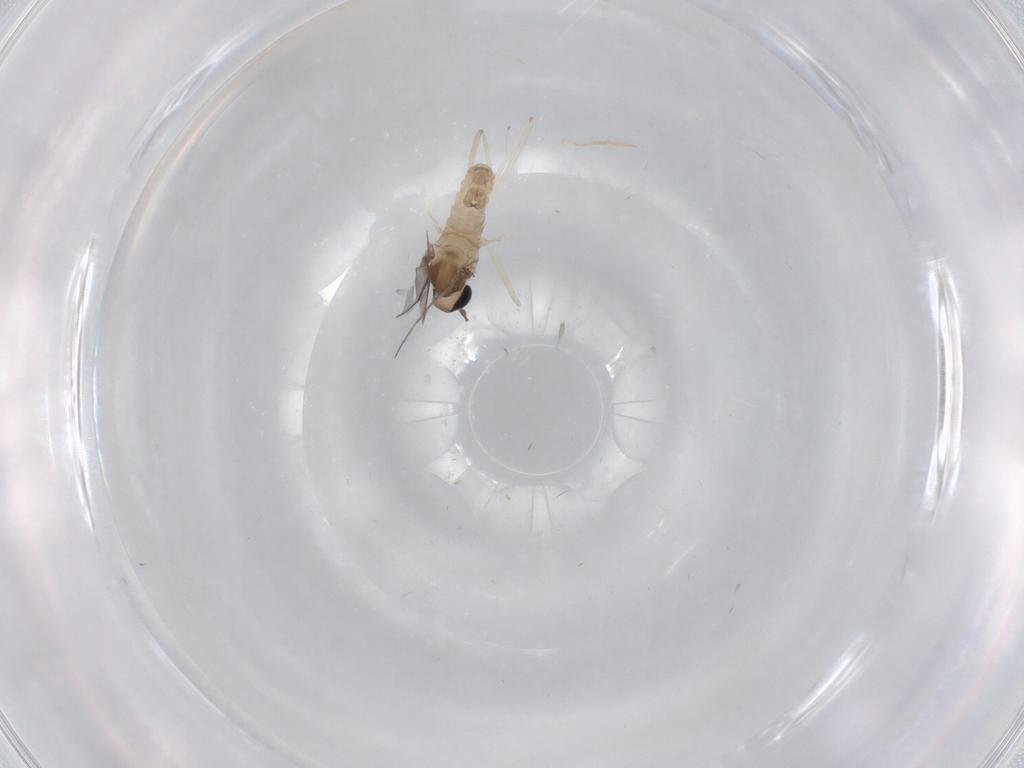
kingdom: Animalia
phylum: Arthropoda
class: Insecta
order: Diptera
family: Cecidomyiidae
